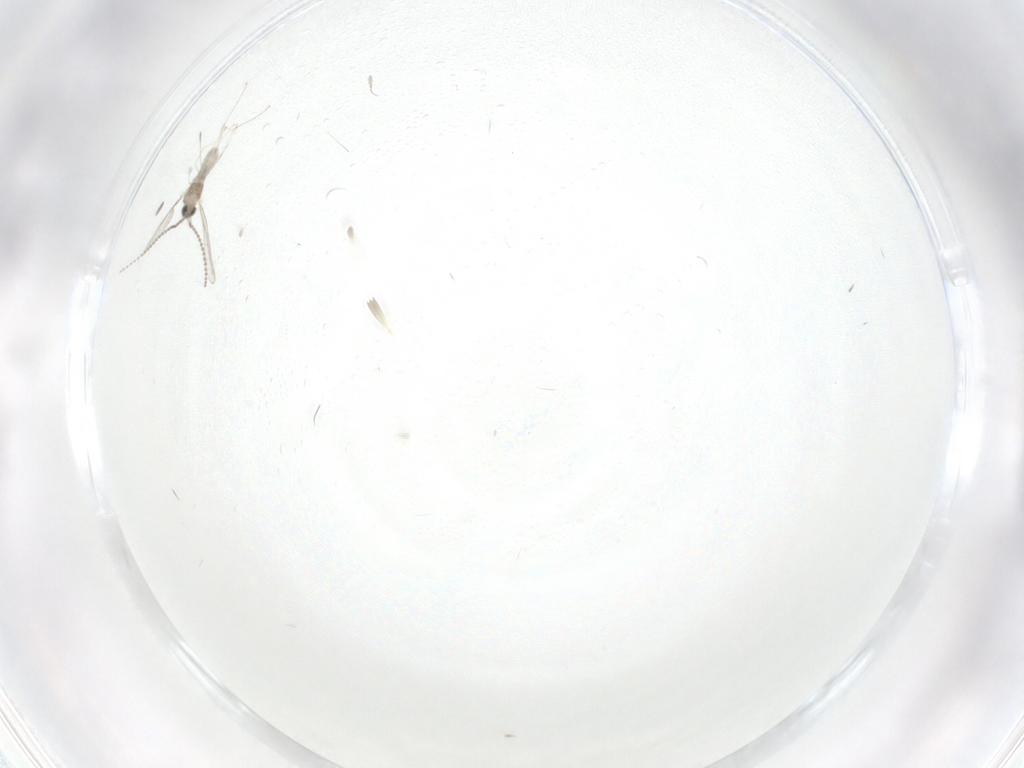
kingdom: Animalia
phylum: Arthropoda
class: Insecta
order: Diptera
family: Cecidomyiidae
